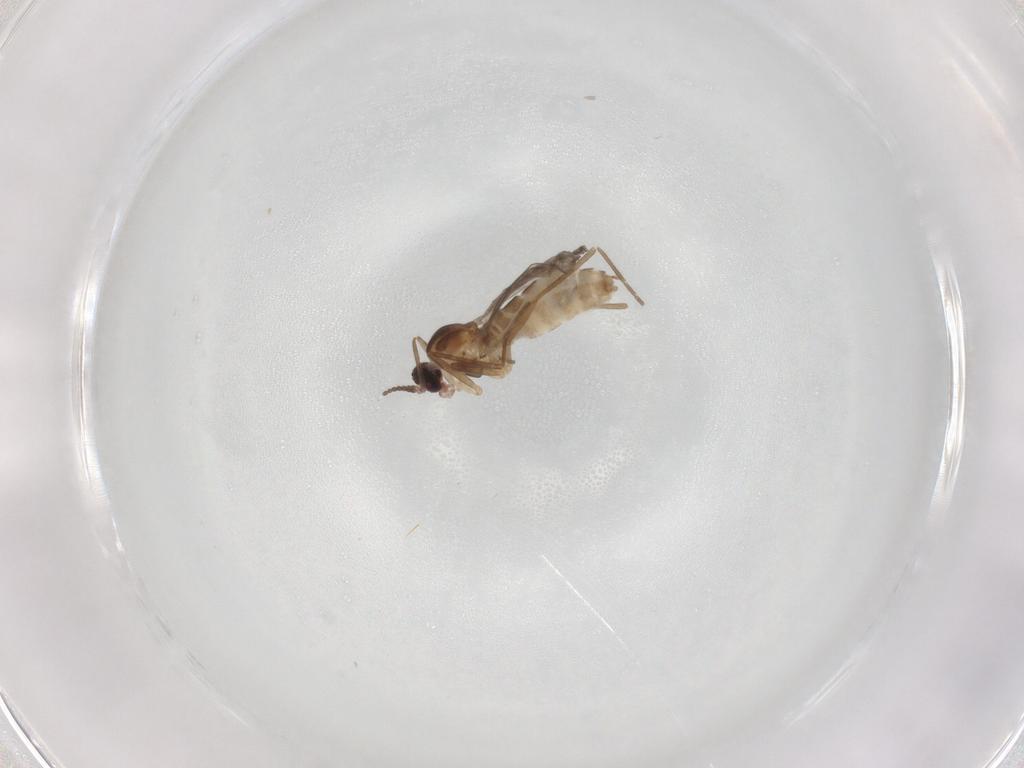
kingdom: Animalia
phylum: Arthropoda
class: Insecta
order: Diptera
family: Cecidomyiidae
